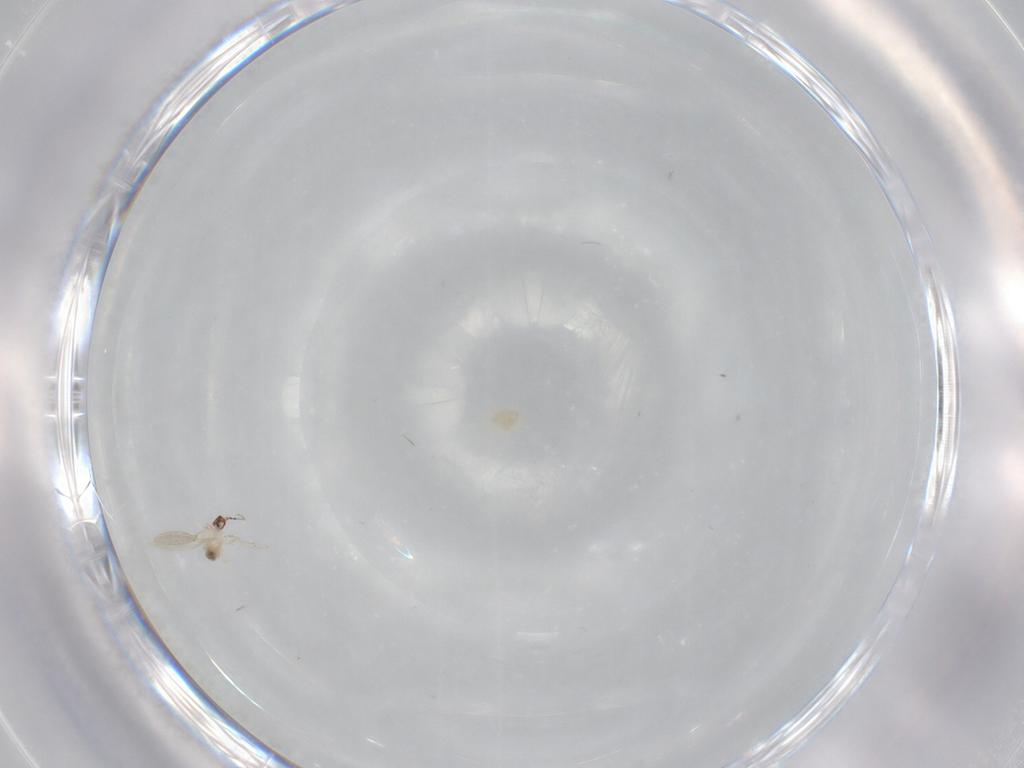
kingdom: Animalia
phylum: Arthropoda
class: Insecta
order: Diptera
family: Cecidomyiidae
